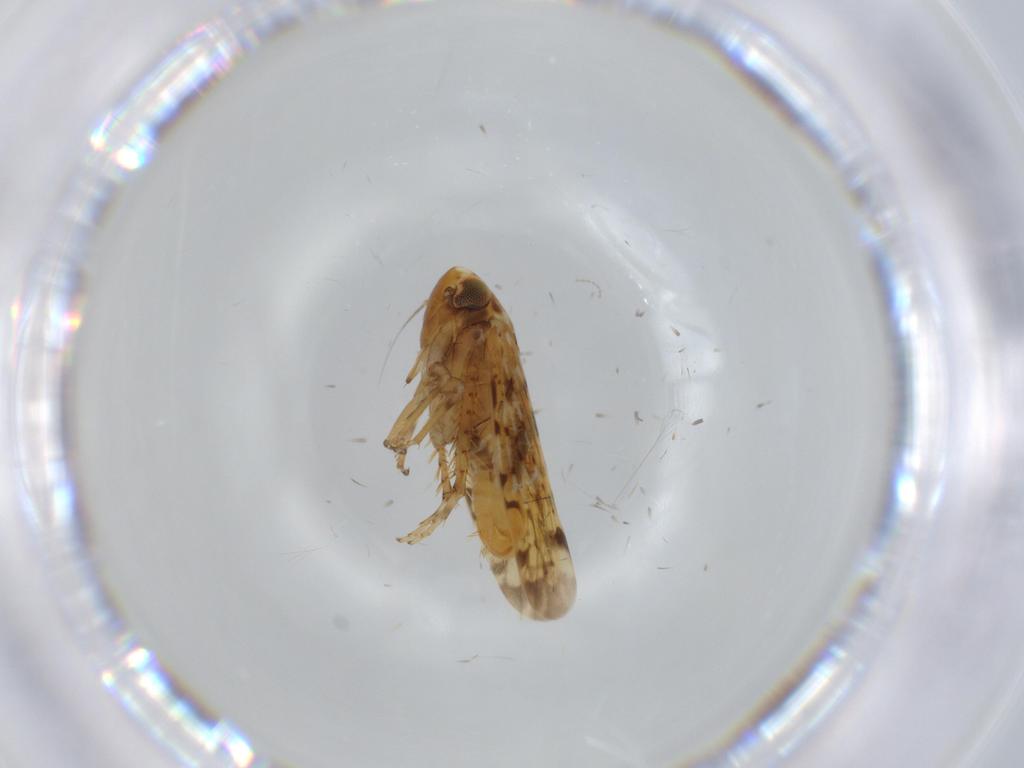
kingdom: Animalia
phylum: Arthropoda
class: Insecta
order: Hemiptera
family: Cicadellidae
